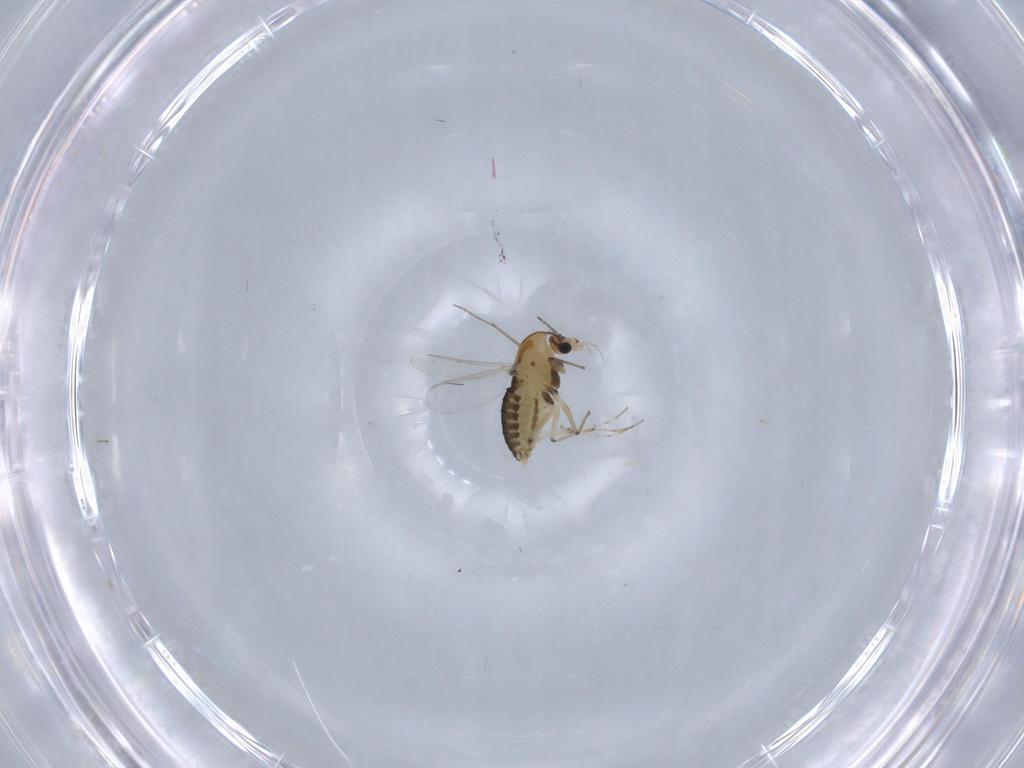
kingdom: Animalia
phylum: Arthropoda
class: Insecta
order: Diptera
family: Chironomidae
